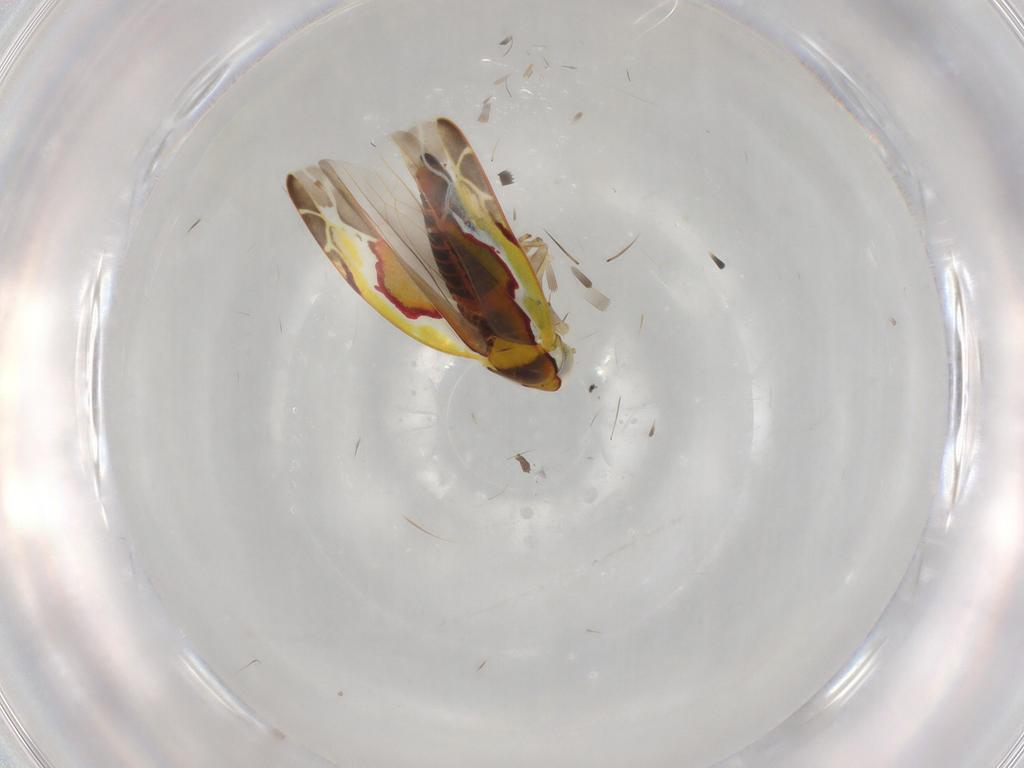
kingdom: Animalia
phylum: Arthropoda
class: Insecta
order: Hemiptera
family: Cicadellidae
